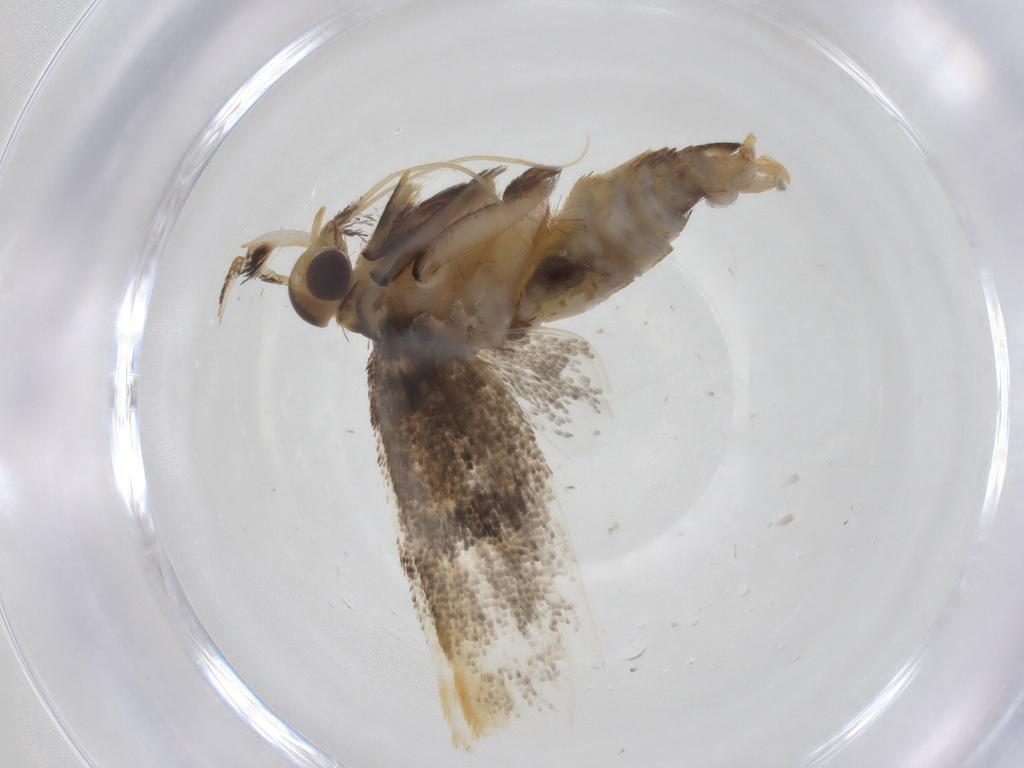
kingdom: Animalia
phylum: Arthropoda
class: Insecta
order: Lepidoptera
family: Lecithoceridae
